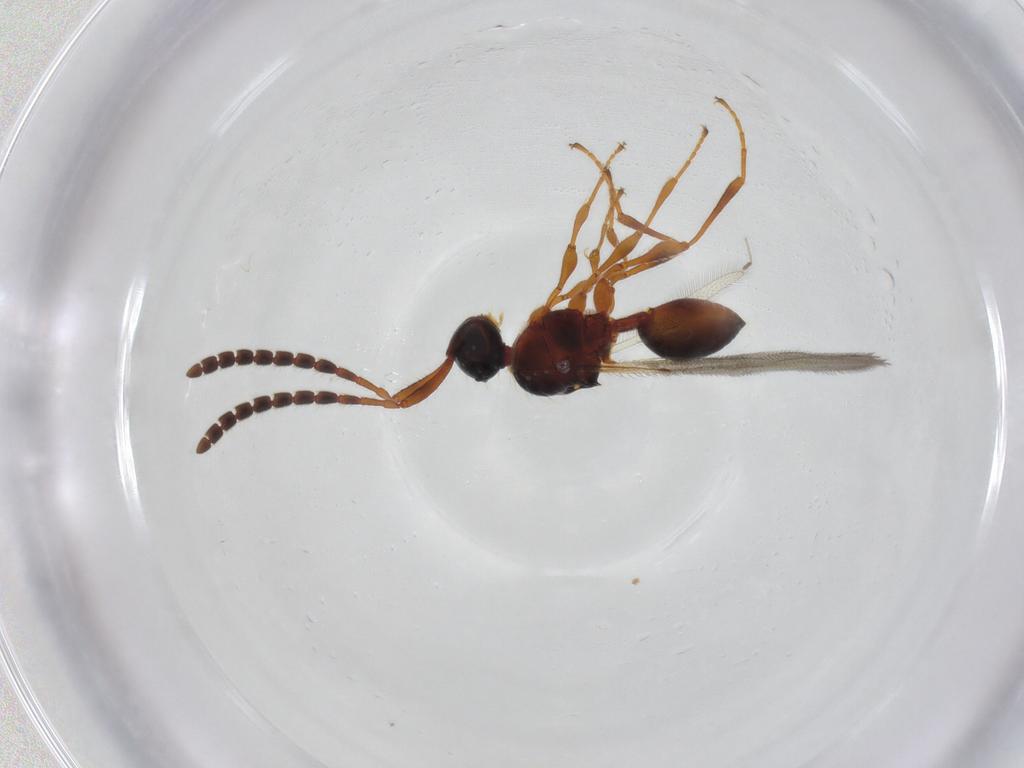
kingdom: Animalia
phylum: Arthropoda
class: Insecta
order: Hymenoptera
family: Diapriidae
